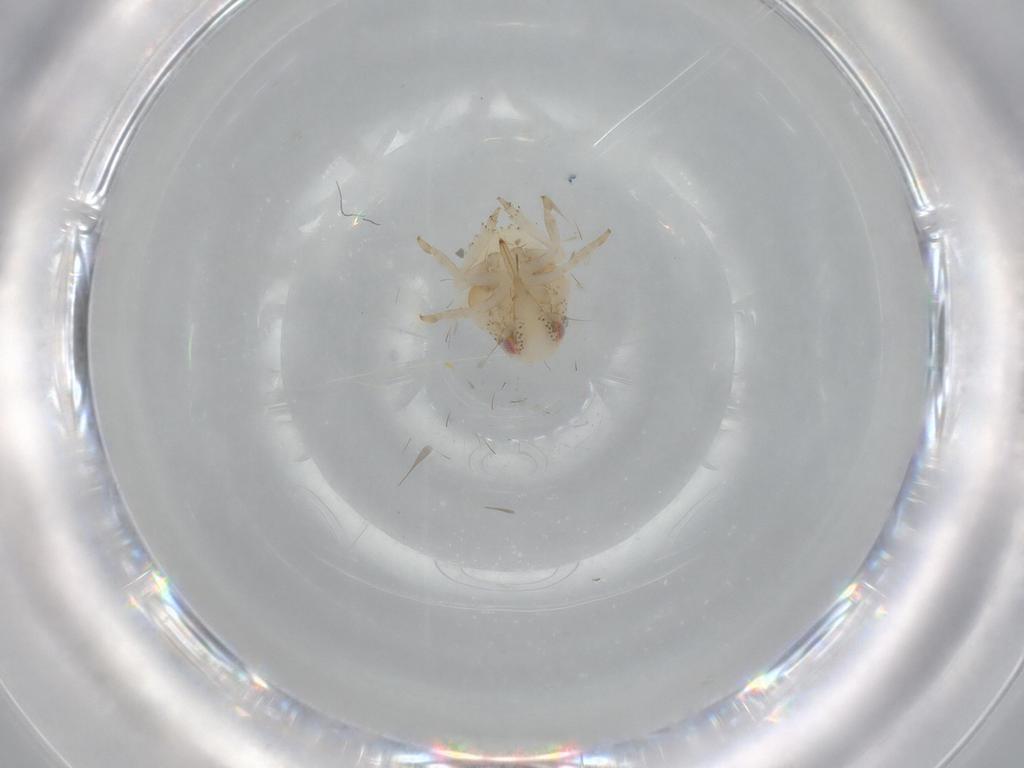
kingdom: Animalia
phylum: Arthropoda
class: Insecta
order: Hemiptera
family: Acanaloniidae
